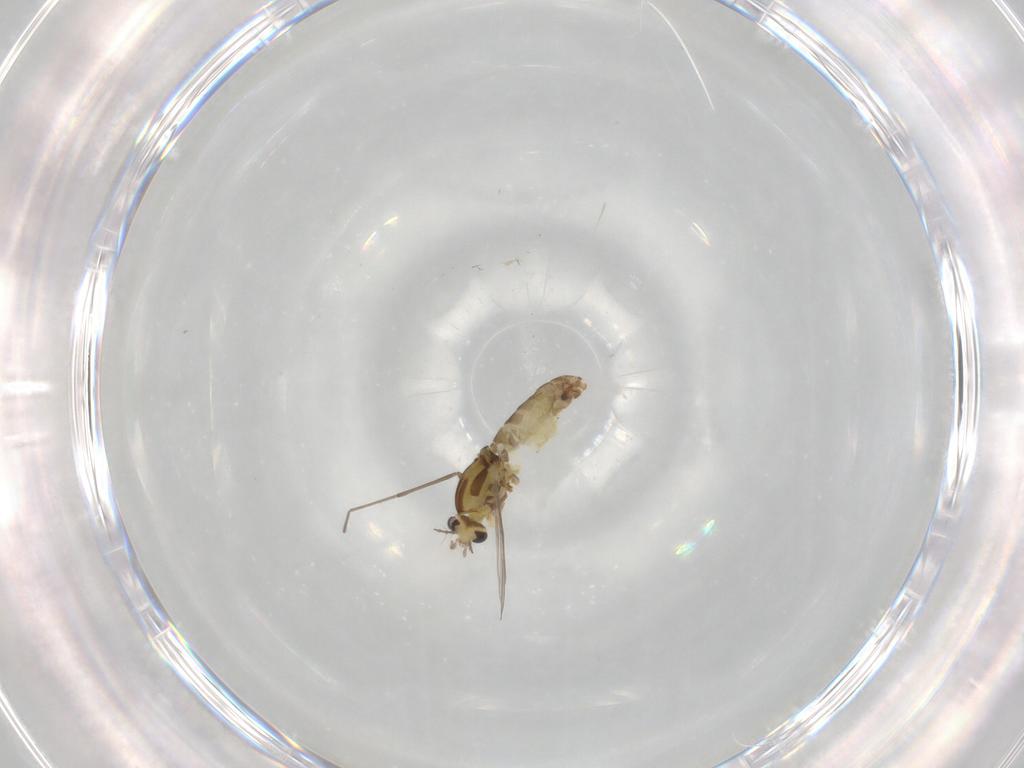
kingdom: Animalia
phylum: Arthropoda
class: Insecta
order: Diptera
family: Chironomidae
